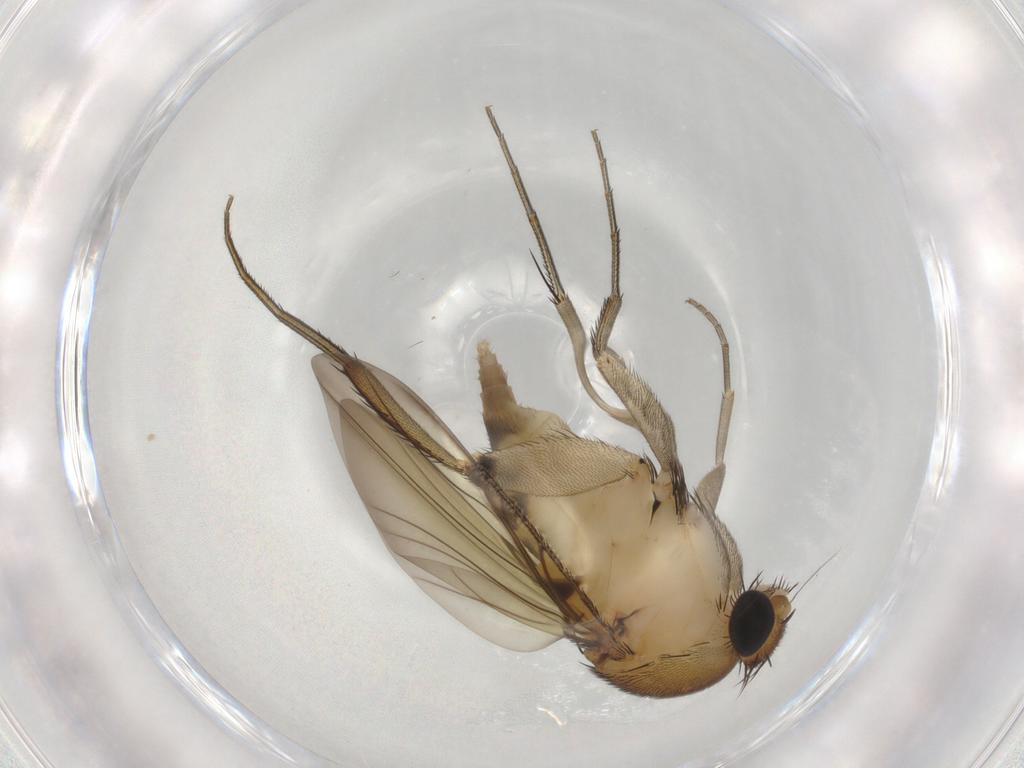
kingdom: Animalia
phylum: Arthropoda
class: Insecta
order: Diptera
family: Phoridae
